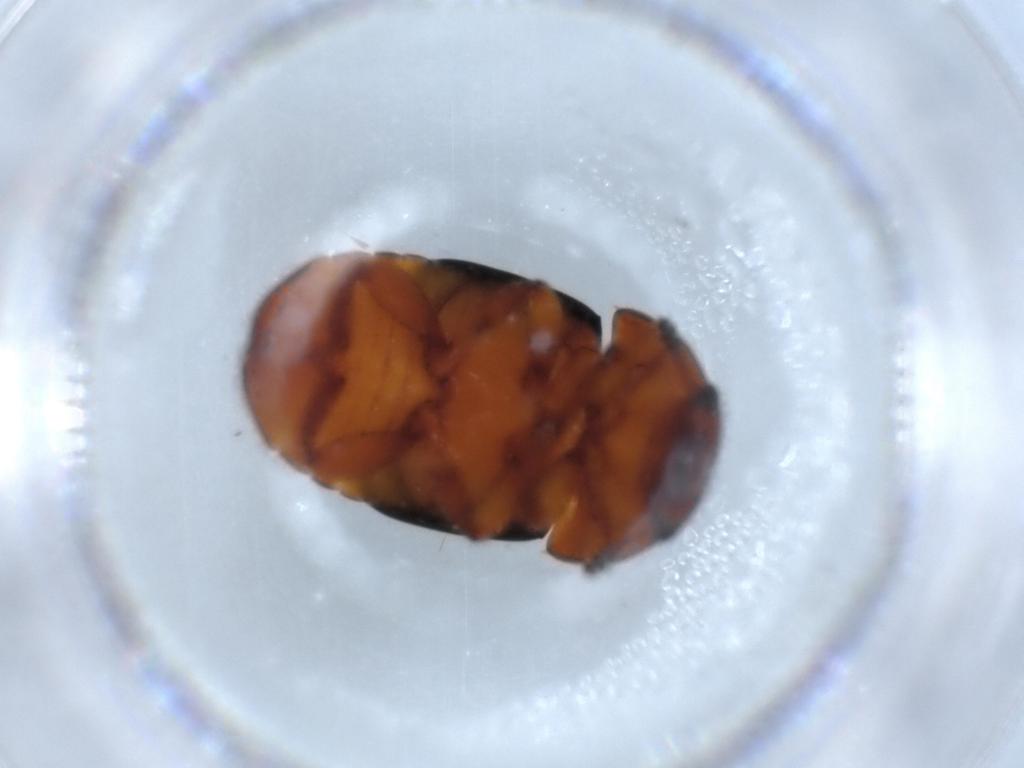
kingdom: Animalia
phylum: Arthropoda
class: Insecta
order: Coleoptera
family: Nitidulidae
